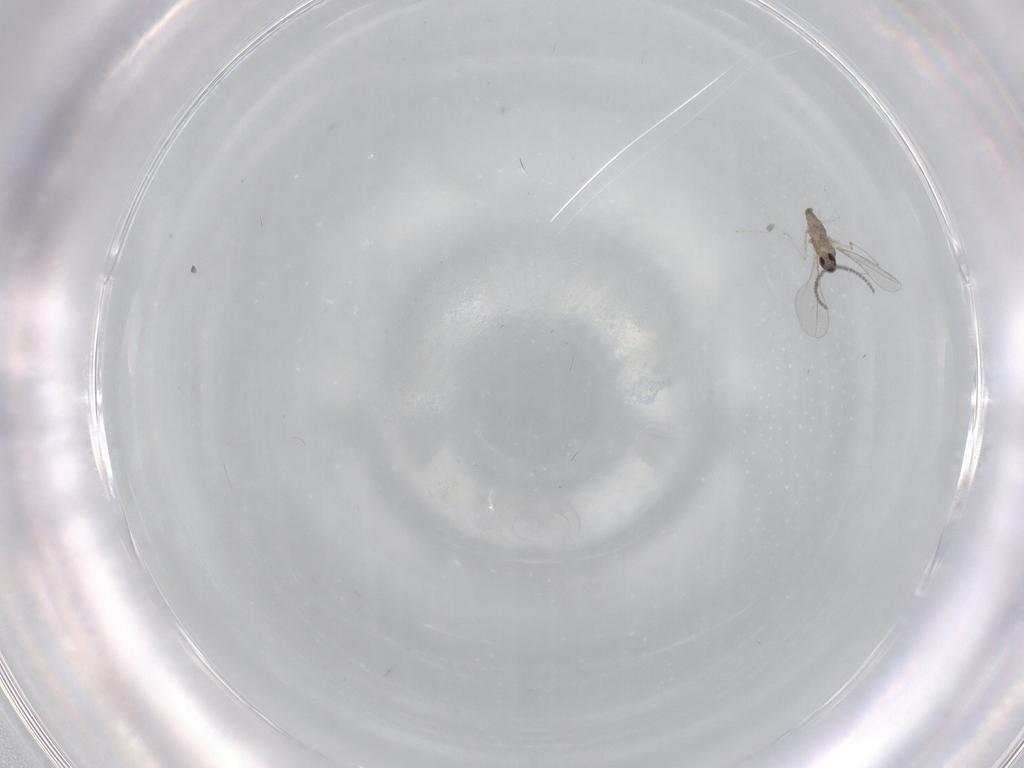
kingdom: Animalia
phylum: Arthropoda
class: Insecta
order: Diptera
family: Cecidomyiidae
